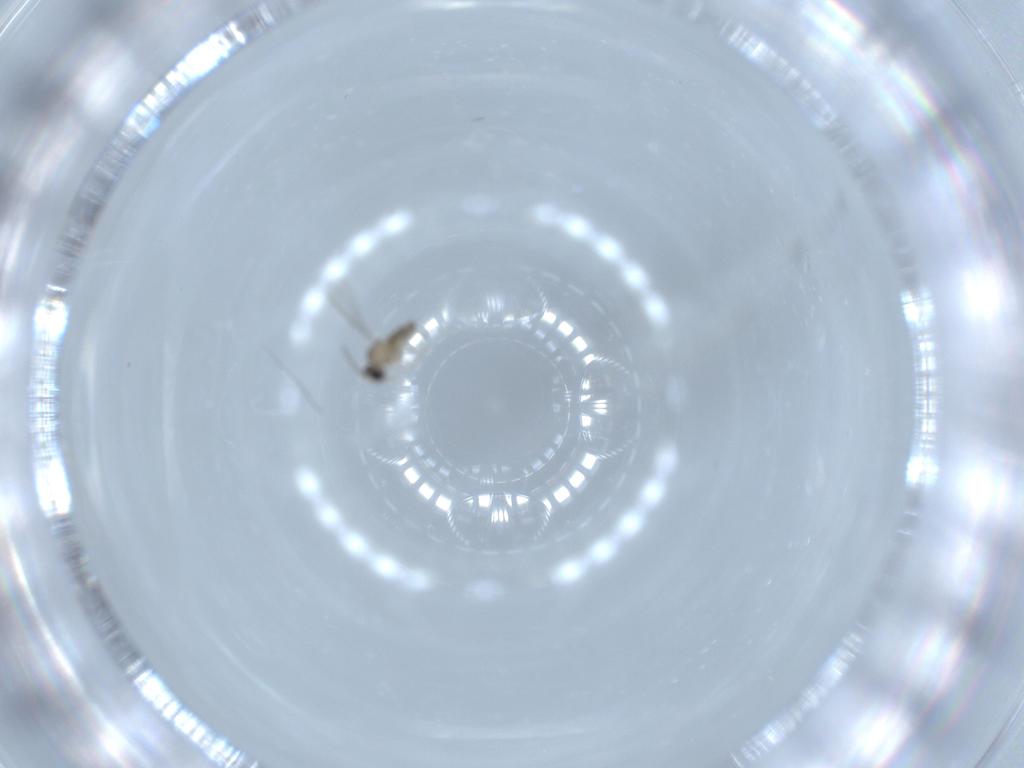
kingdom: Animalia
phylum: Arthropoda
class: Insecta
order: Diptera
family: Cecidomyiidae
